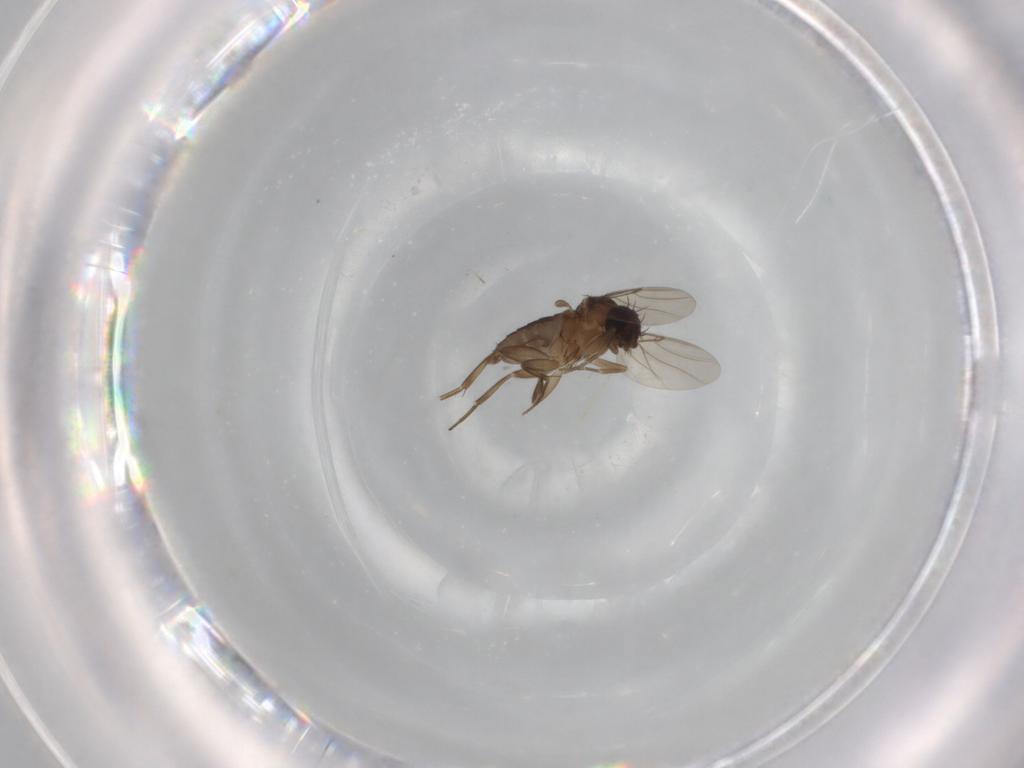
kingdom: Animalia
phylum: Arthropoda
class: Insecta
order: Diptera
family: Phoridae
